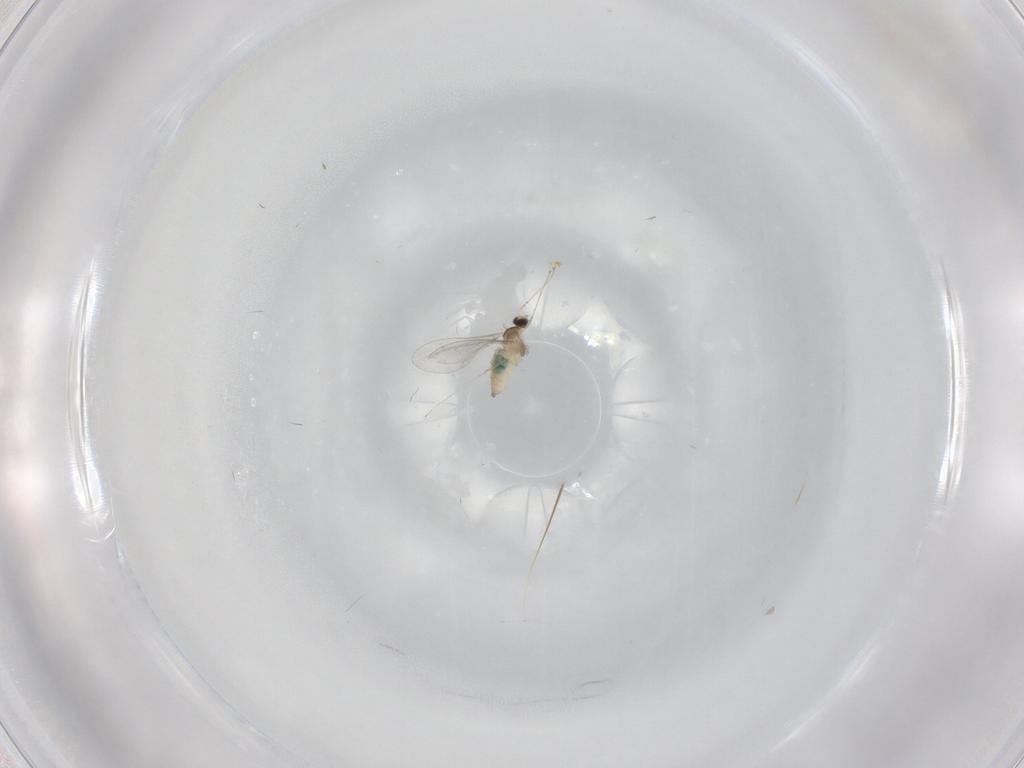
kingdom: Animalia
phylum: Arthropoda
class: Insecta
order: Diptera
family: Cecidomyiidae
